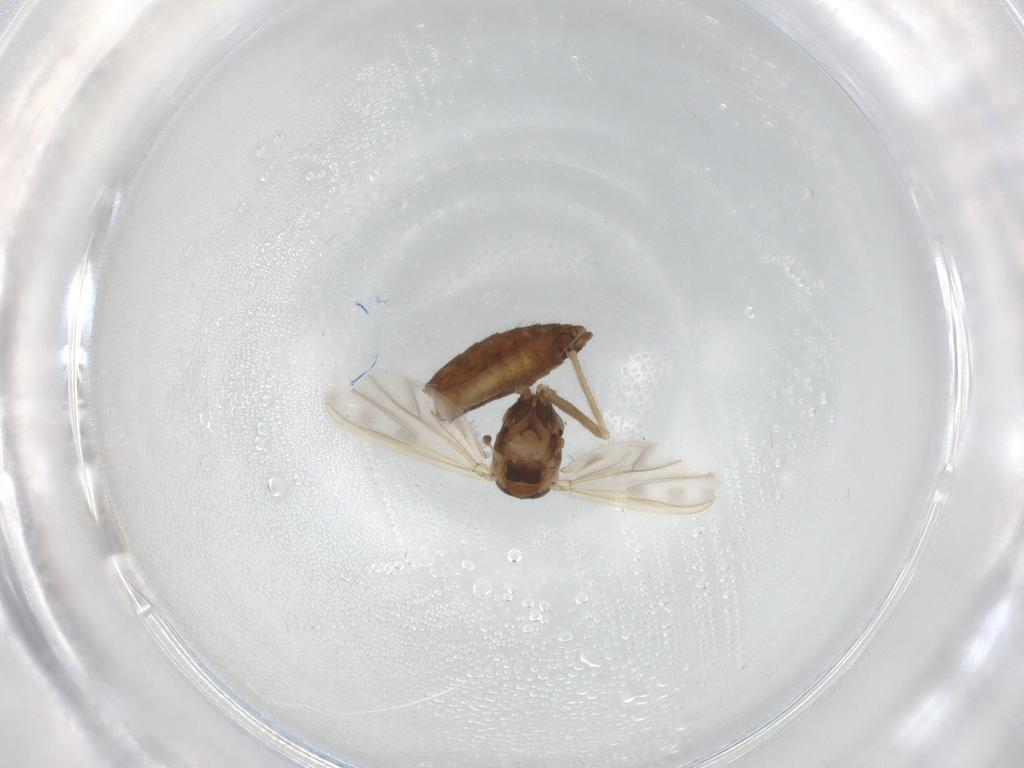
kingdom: Animalia
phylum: Arthropoda
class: Insecta
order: Diptera
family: Chironomidae
